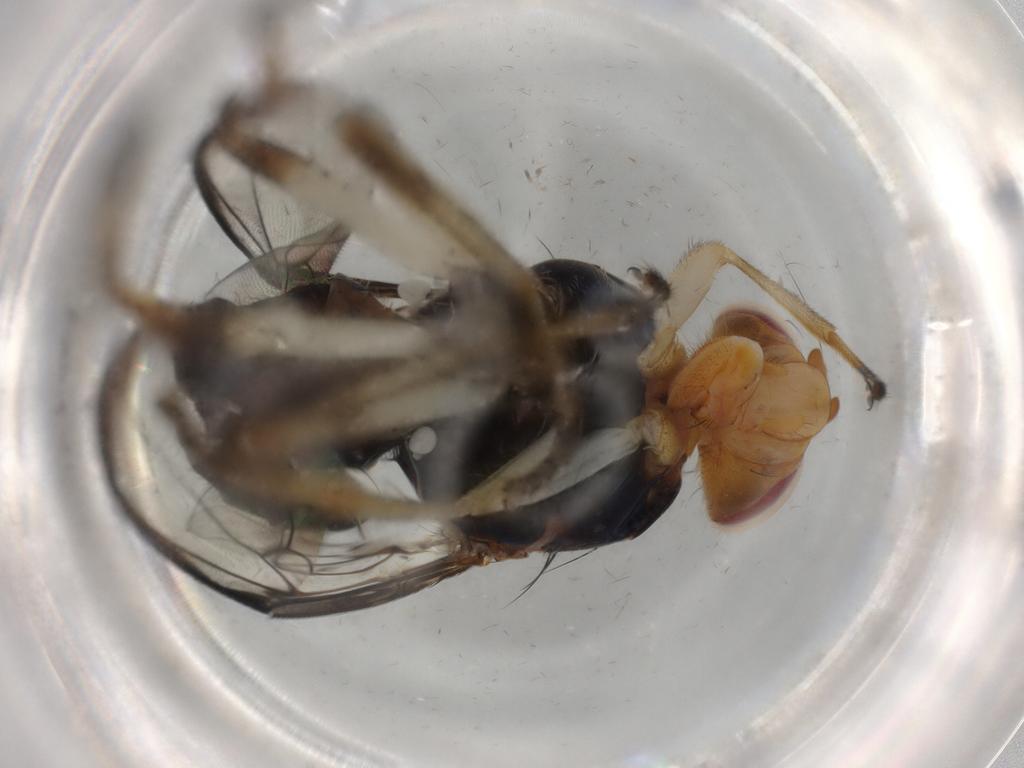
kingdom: Animalia
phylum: Arthropoda
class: Insecta
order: Diptera
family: Richardiidae
